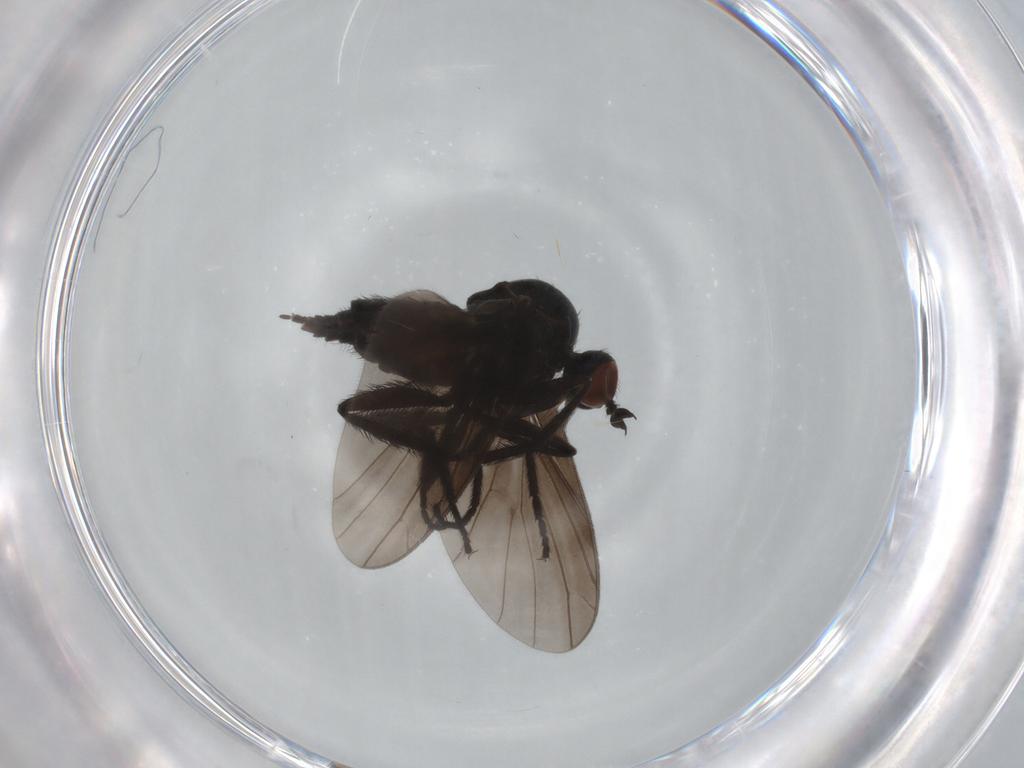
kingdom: Animalia
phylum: Arthropoda
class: Insecta
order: Diptera
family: Empididae
